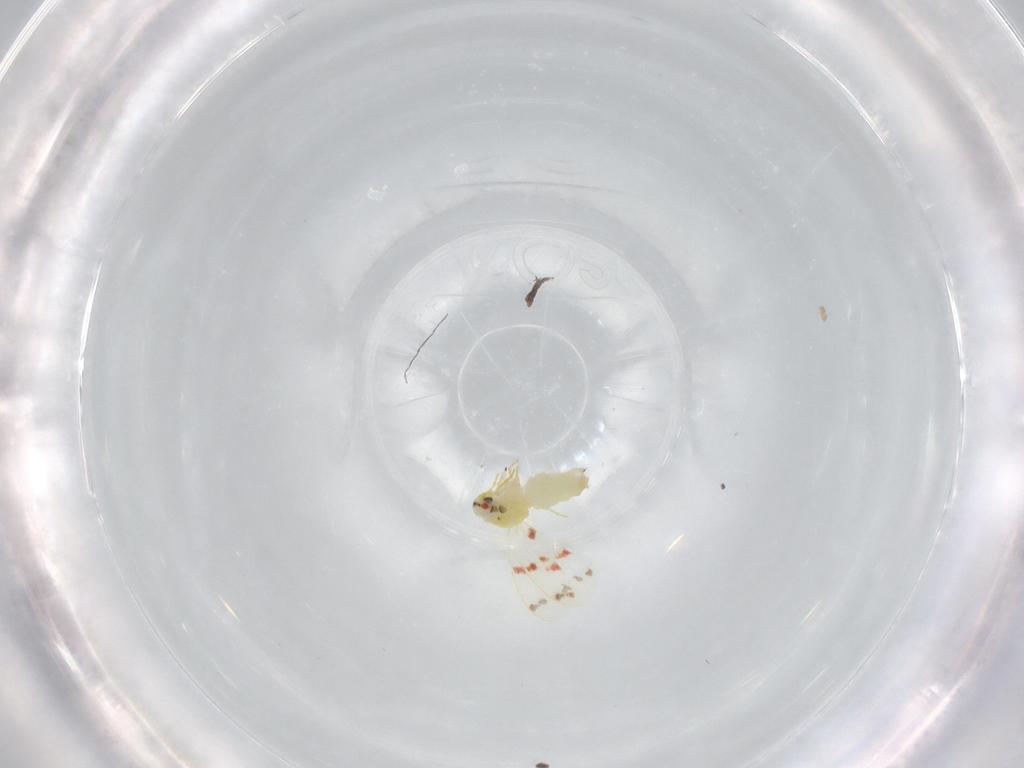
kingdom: Animalia
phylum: Arthropoda
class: Insecta
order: Hemiptera
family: Aleyrodidae
